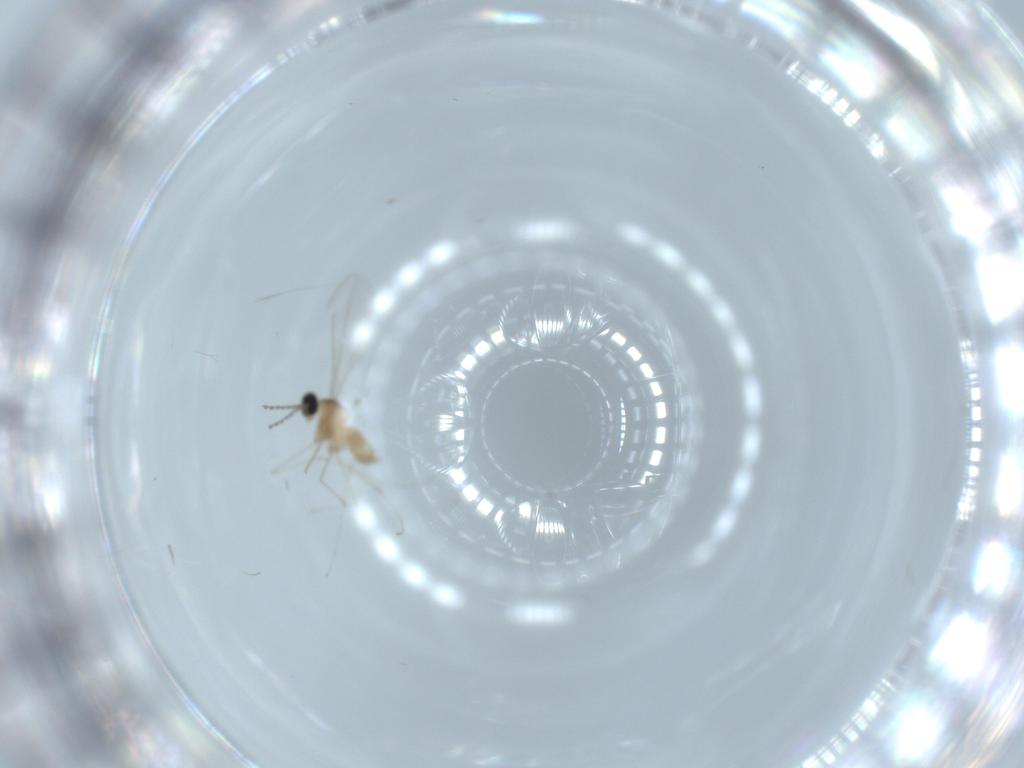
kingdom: Animalia
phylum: Arthropoda
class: Insecta
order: Diptera
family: Cecidomyiidae
